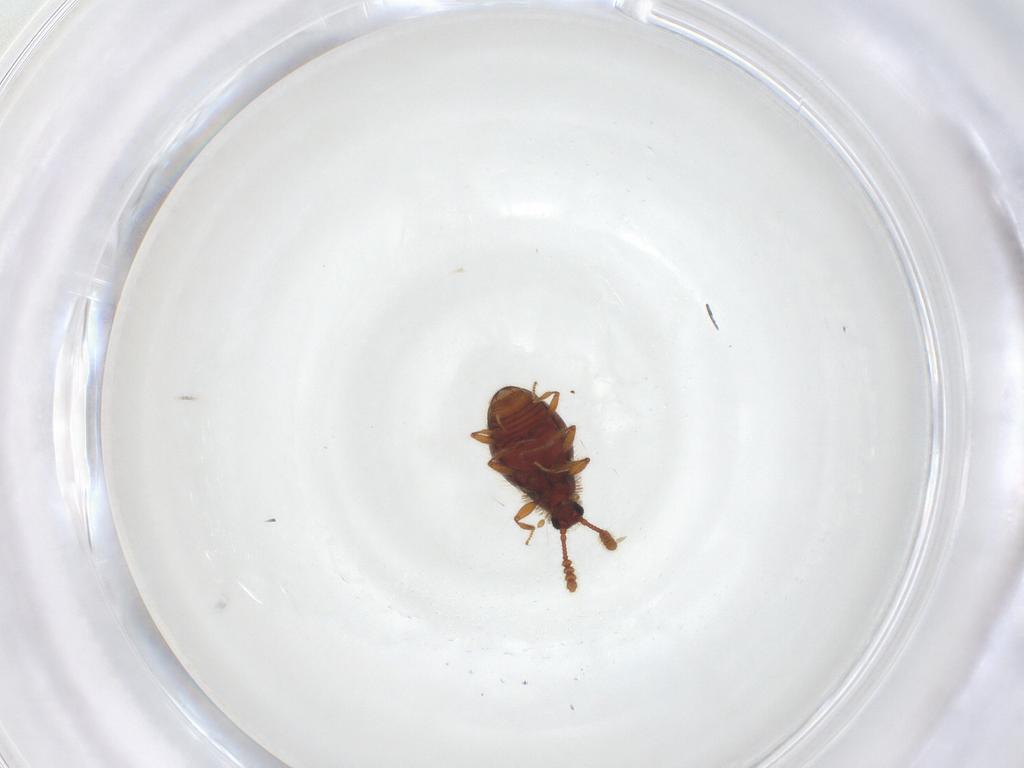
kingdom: Animalia
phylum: Arthropoda
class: Insecta
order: Coleoptera
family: Staphylinidae
